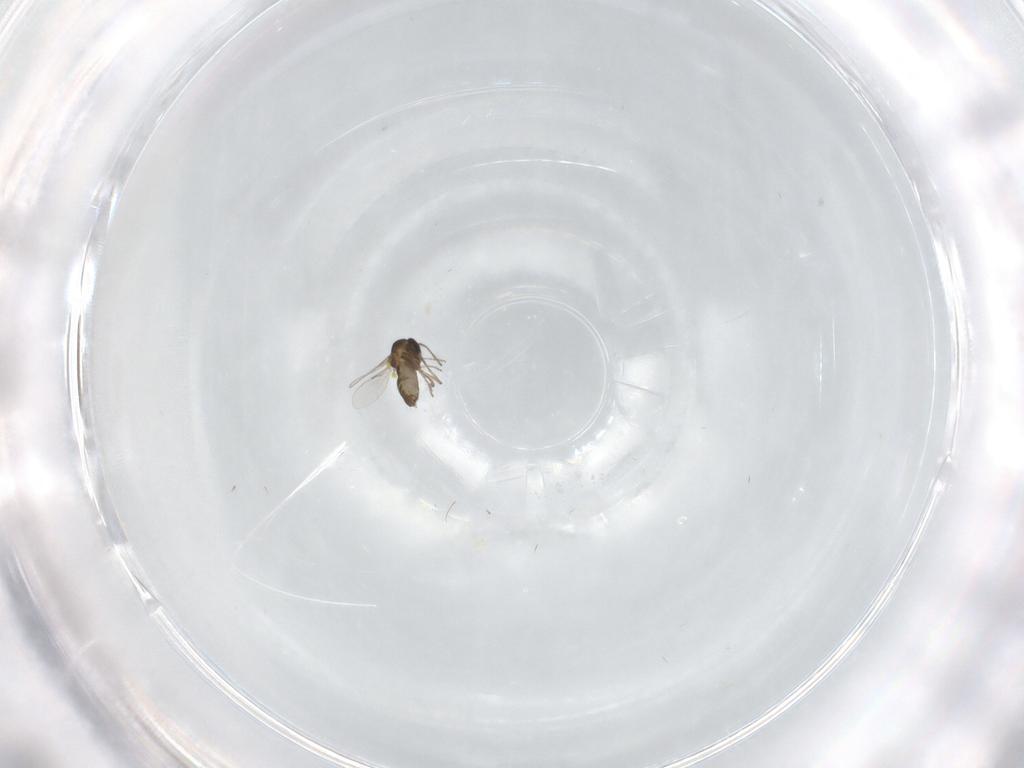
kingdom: Animalia
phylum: Arthropoda
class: Insecta
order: Diptera
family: Ceratopogonidae
